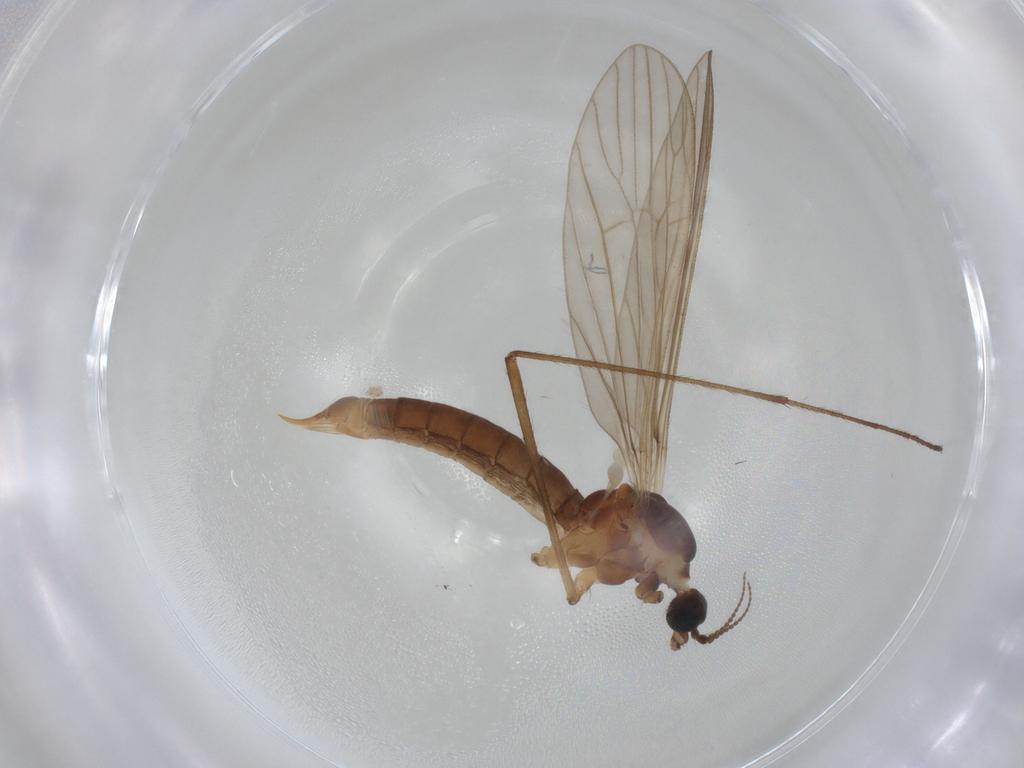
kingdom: Animalia
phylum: Arthropoda
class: Insecta
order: Diptera
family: Limoniidae
